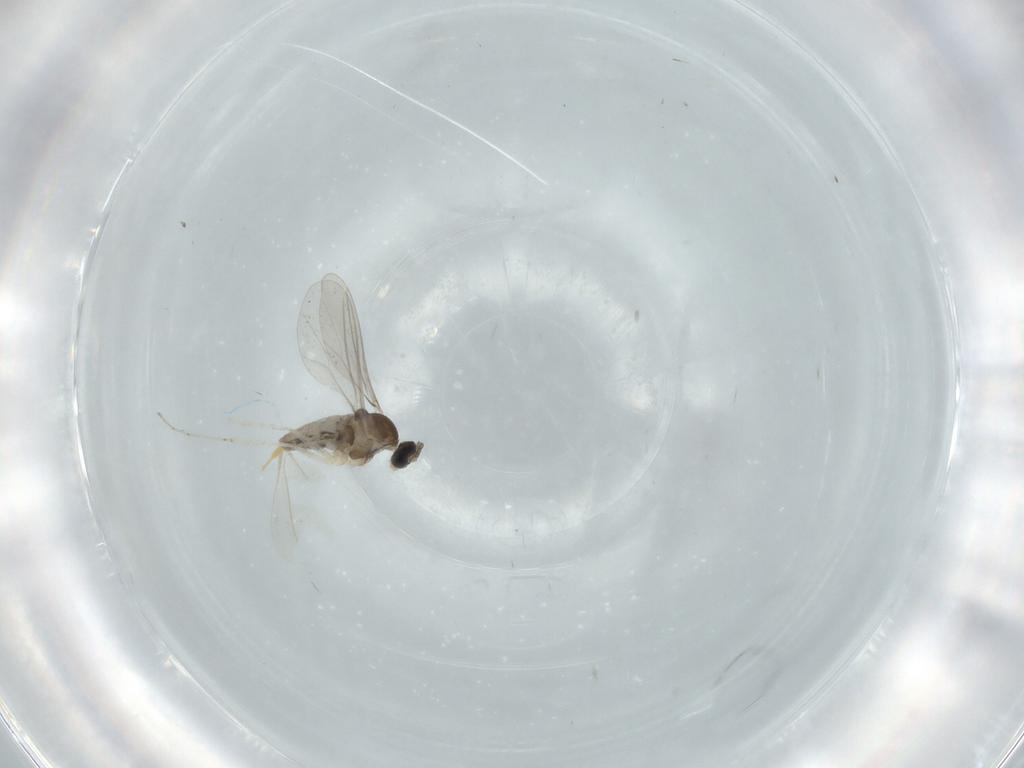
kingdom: Animalia
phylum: Arthropoda
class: Insecta
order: Diptera
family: Cecidomyiidae
